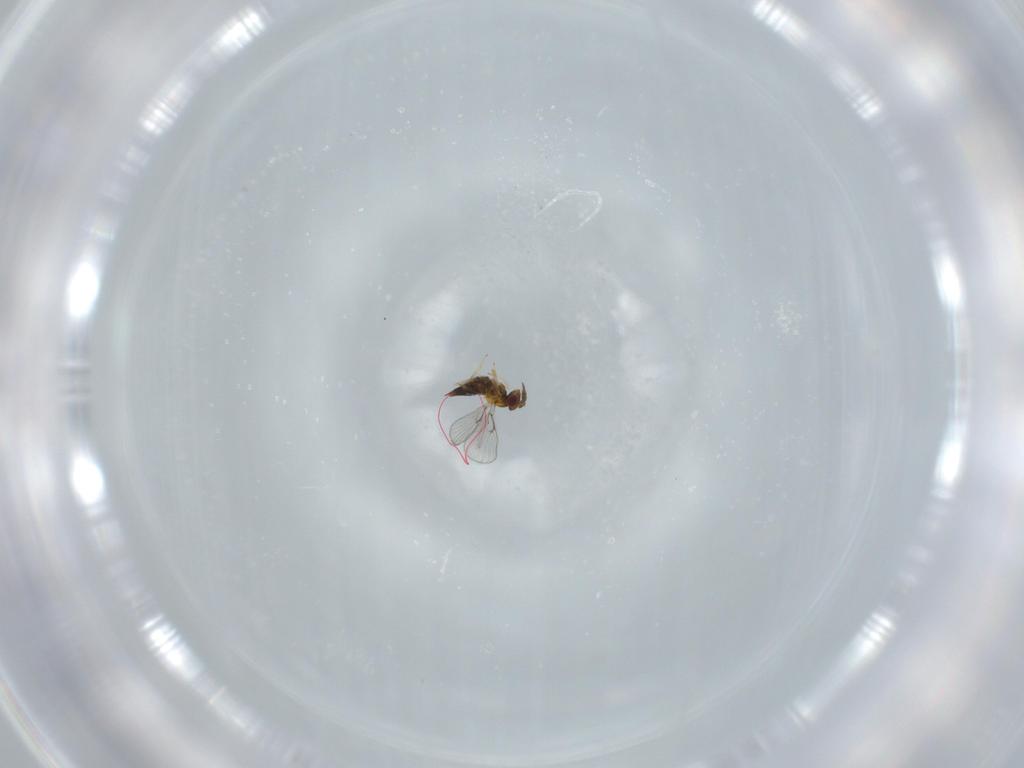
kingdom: Animalia
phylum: Arthropoda
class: Insecta
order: Hymenoptera
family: Trichogrammatidae
